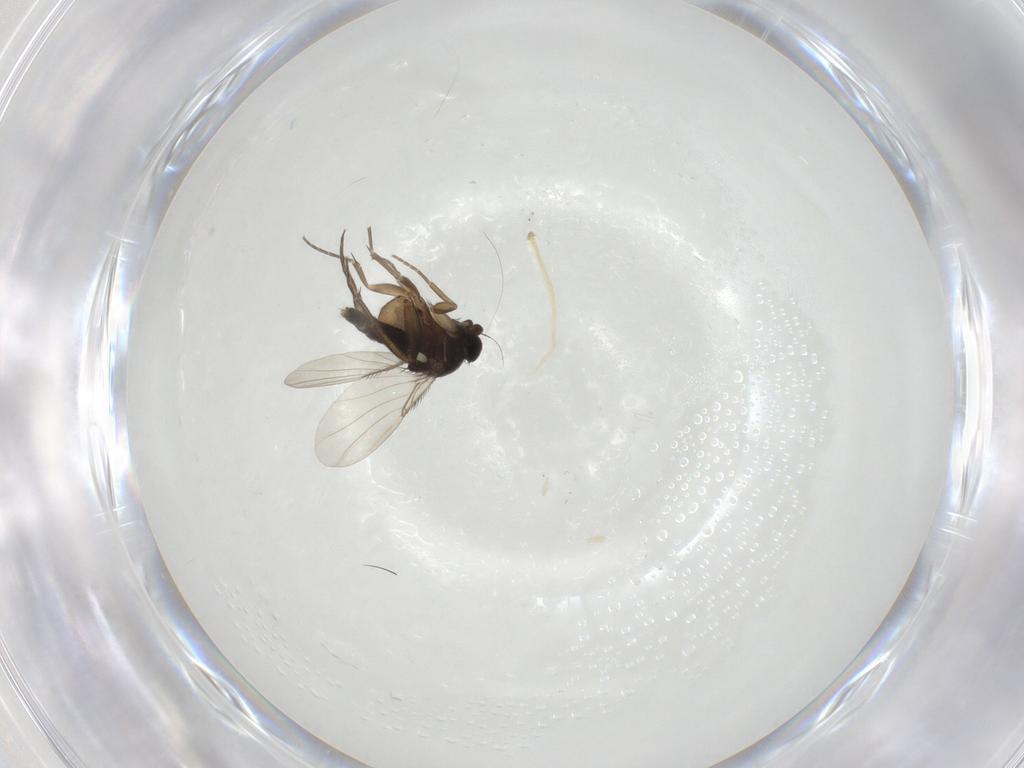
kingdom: Animalia
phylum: Arthropoda
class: Insecta
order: Diptera
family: Phoridae
